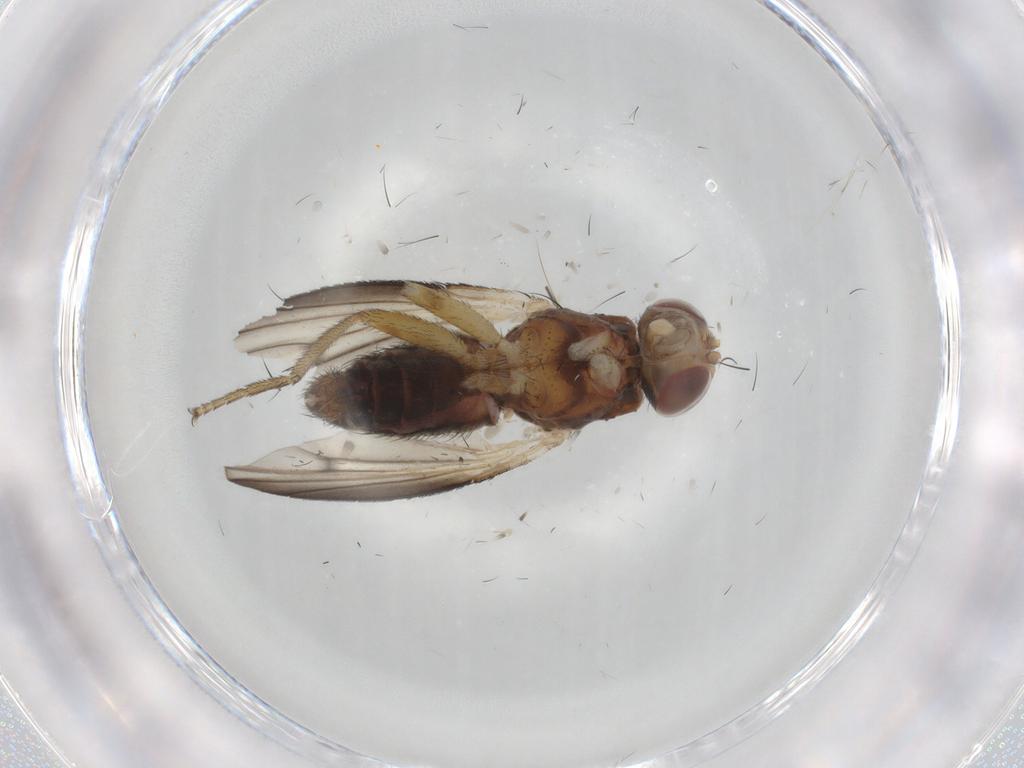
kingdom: Animalia
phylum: Arthropoda
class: Insecta
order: Diptera
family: Heleomyzidae
